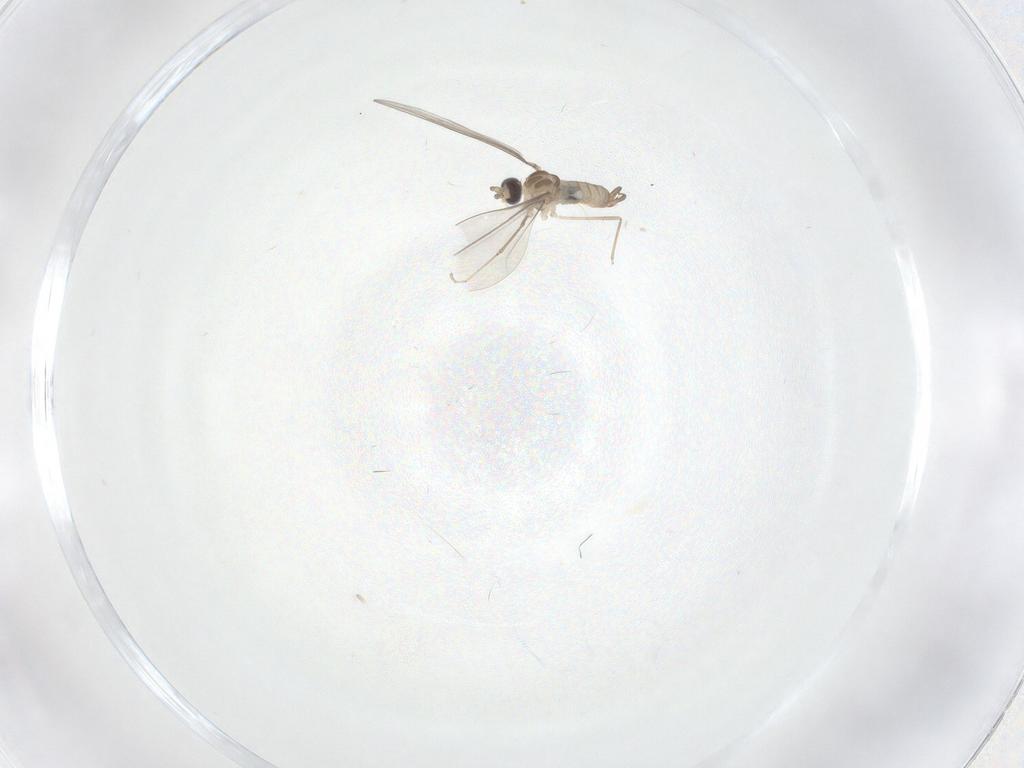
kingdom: Animalia
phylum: Arthropoda
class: Insecta
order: Diptera
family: Cecidomyiidae
